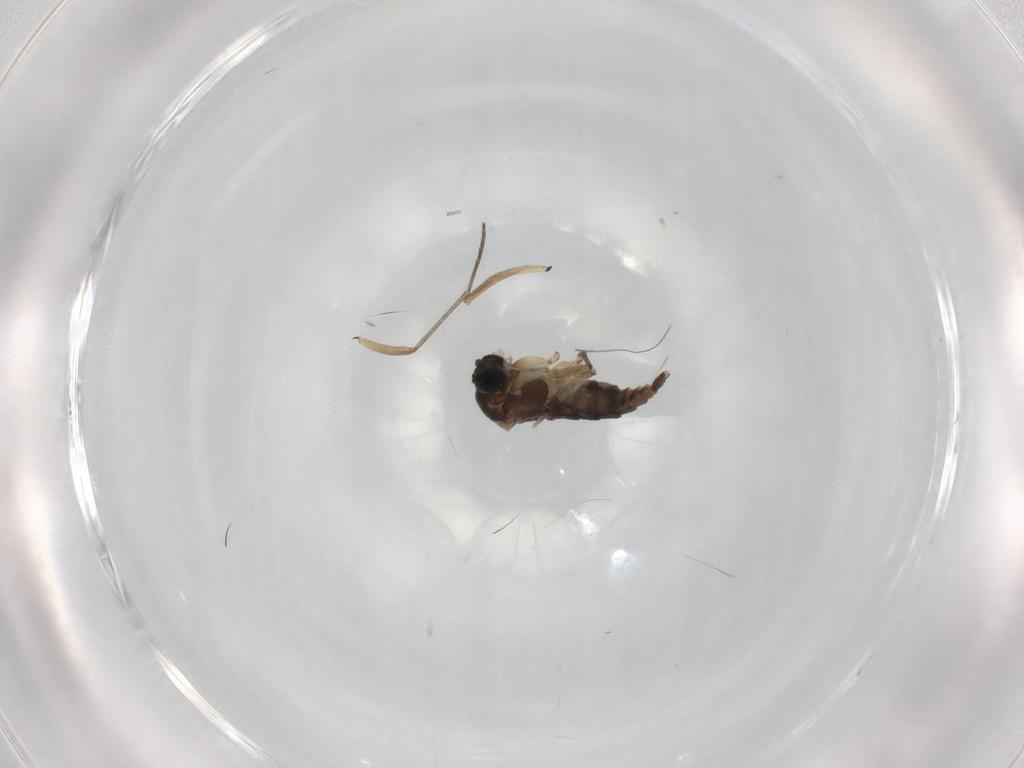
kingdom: Animalia
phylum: Arthropoda
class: Insecta
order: Diptera
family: Sciaridae
